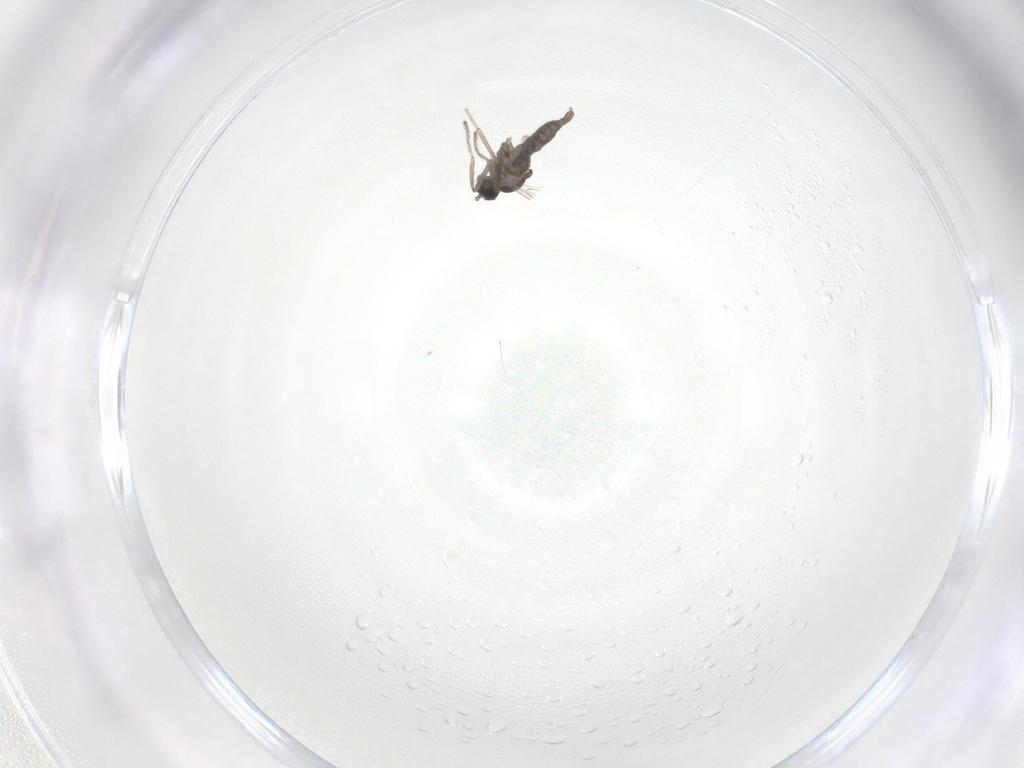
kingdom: Animalia
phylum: Arthropoda
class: Insecta
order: Diptera
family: Cecidomyiidae
